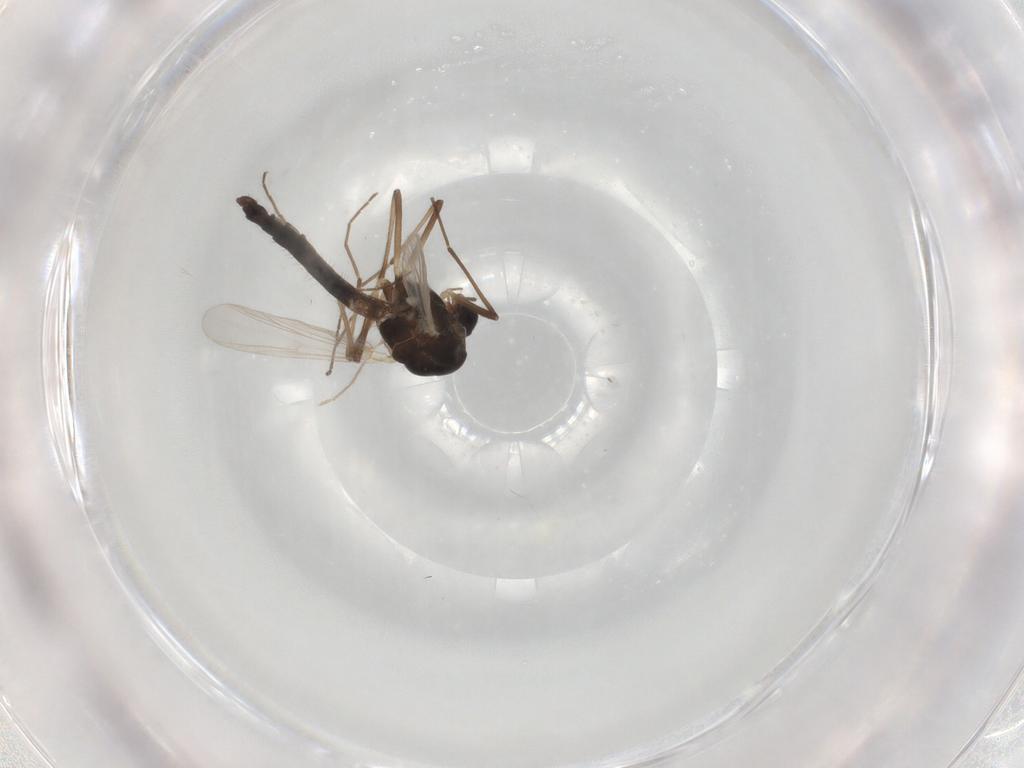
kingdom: Animalia
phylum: Arthropoda
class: Insecta
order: Diptera
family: Phoridae
